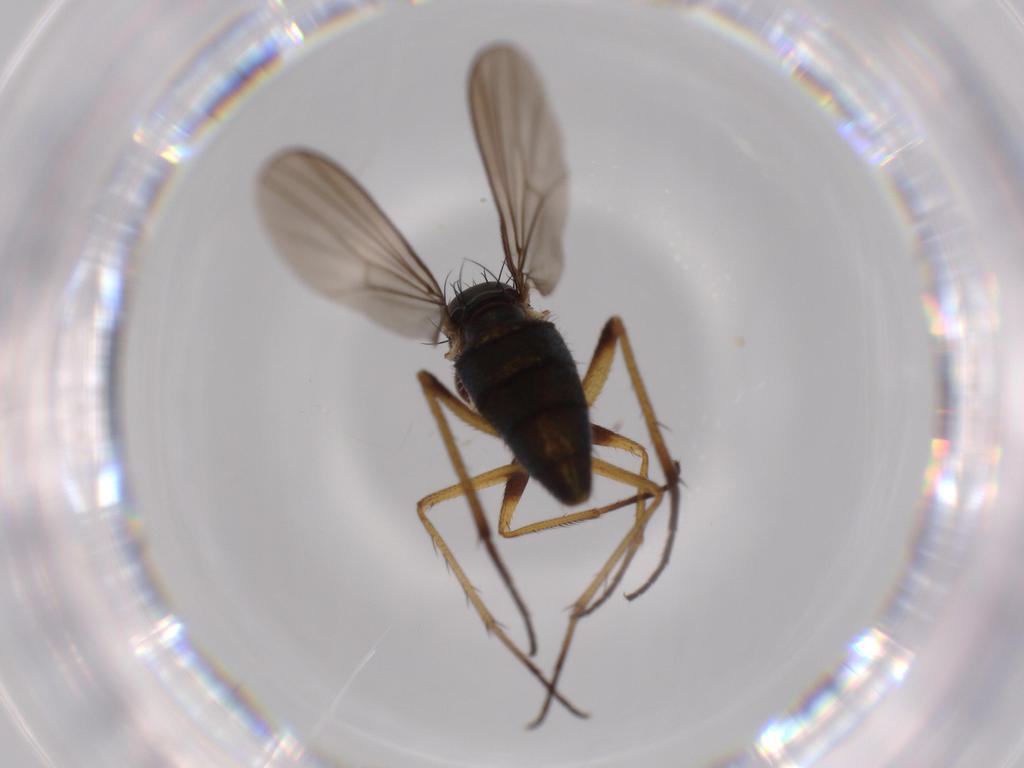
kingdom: Animalia
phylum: Arthropoda
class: Insecta
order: Diptera
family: Dolichopodidae
